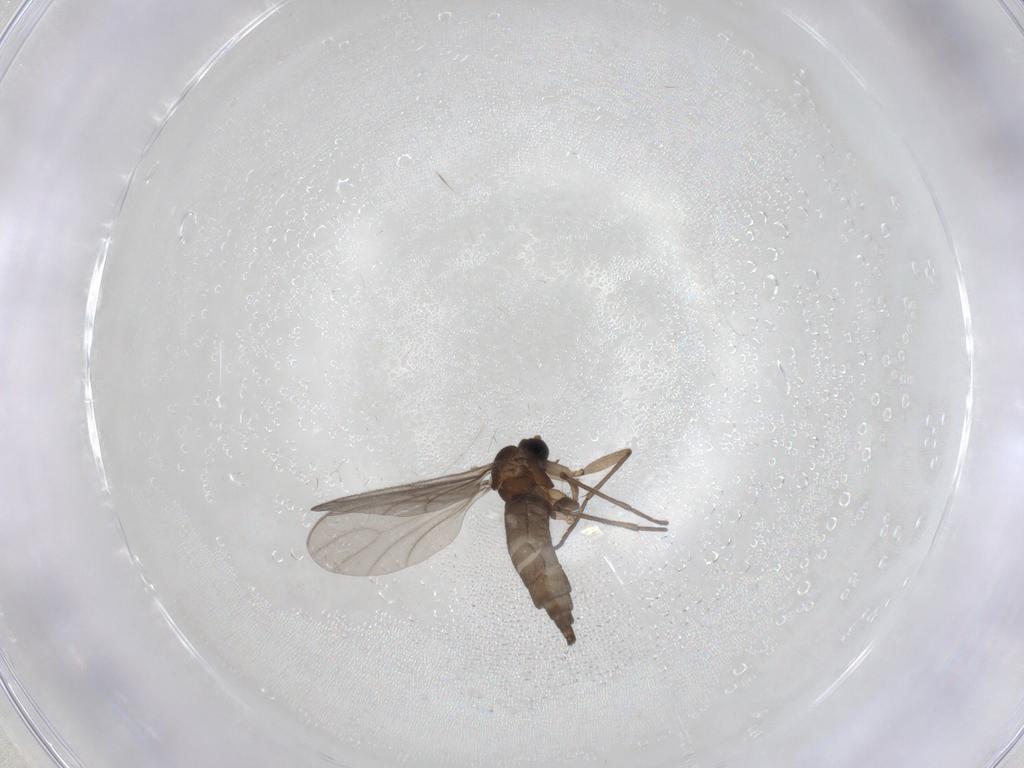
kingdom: Animalia
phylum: Arthropoda
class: Insecta
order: Diptera
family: Sciaridae
